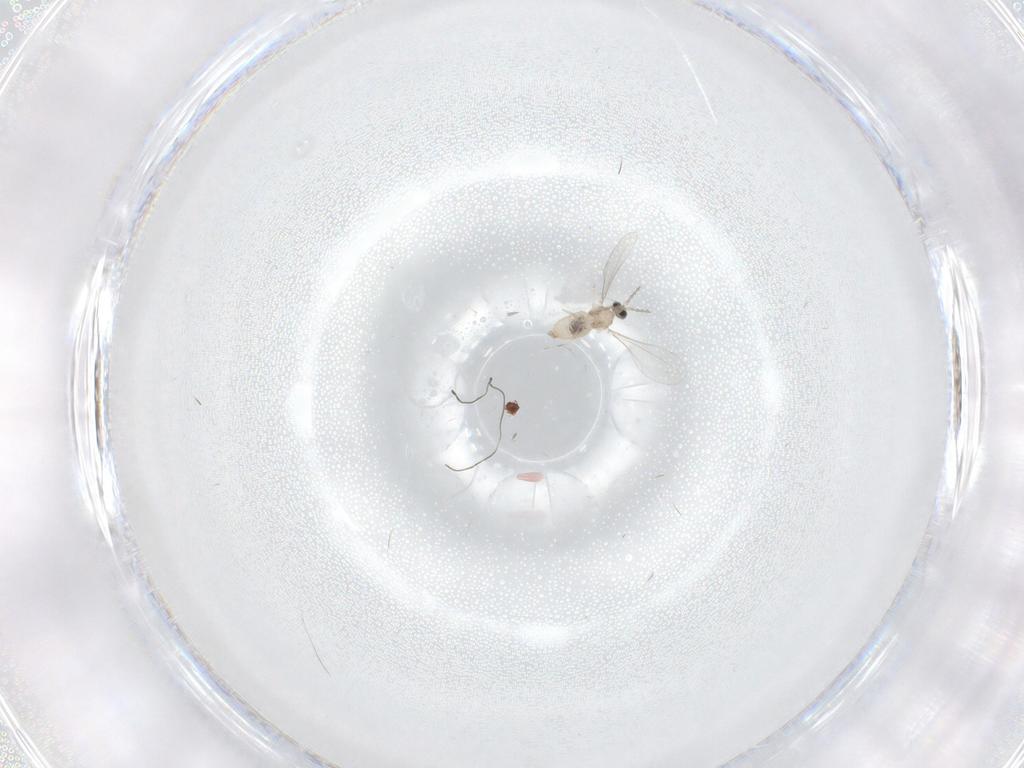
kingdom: Animalia
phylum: Arthropoda
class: Insecta
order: Diptera
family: Cecidomyiidae
